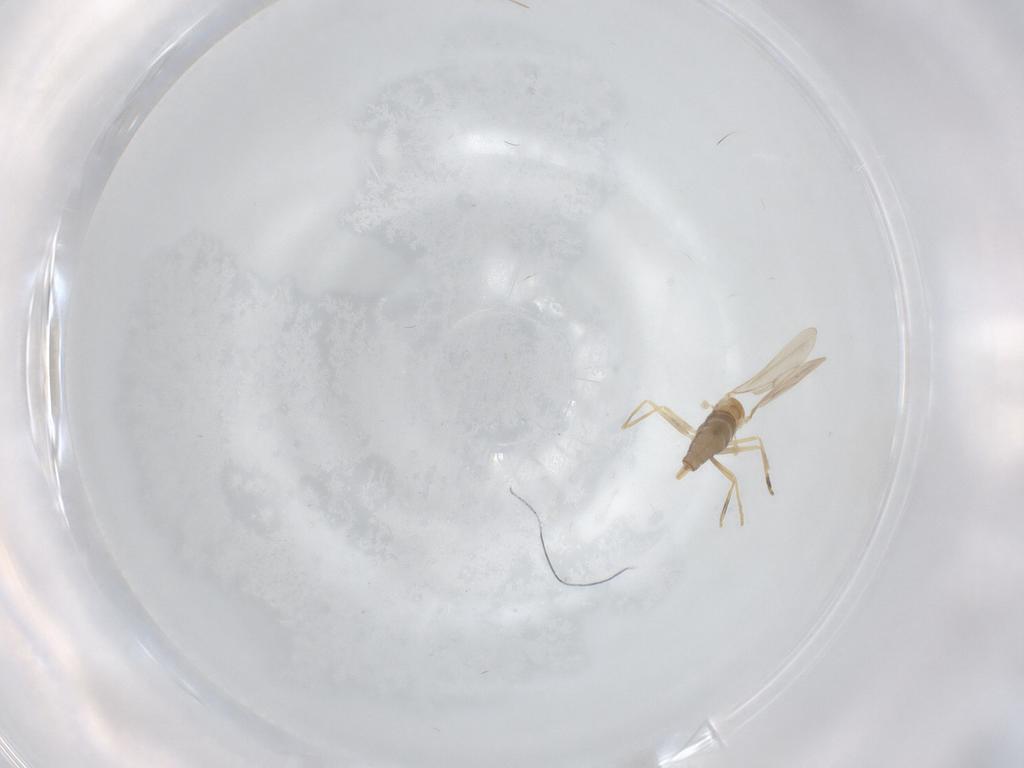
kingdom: Animalia
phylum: Arthropoda
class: Insecta
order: Diptera
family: Cecidomyiidae
